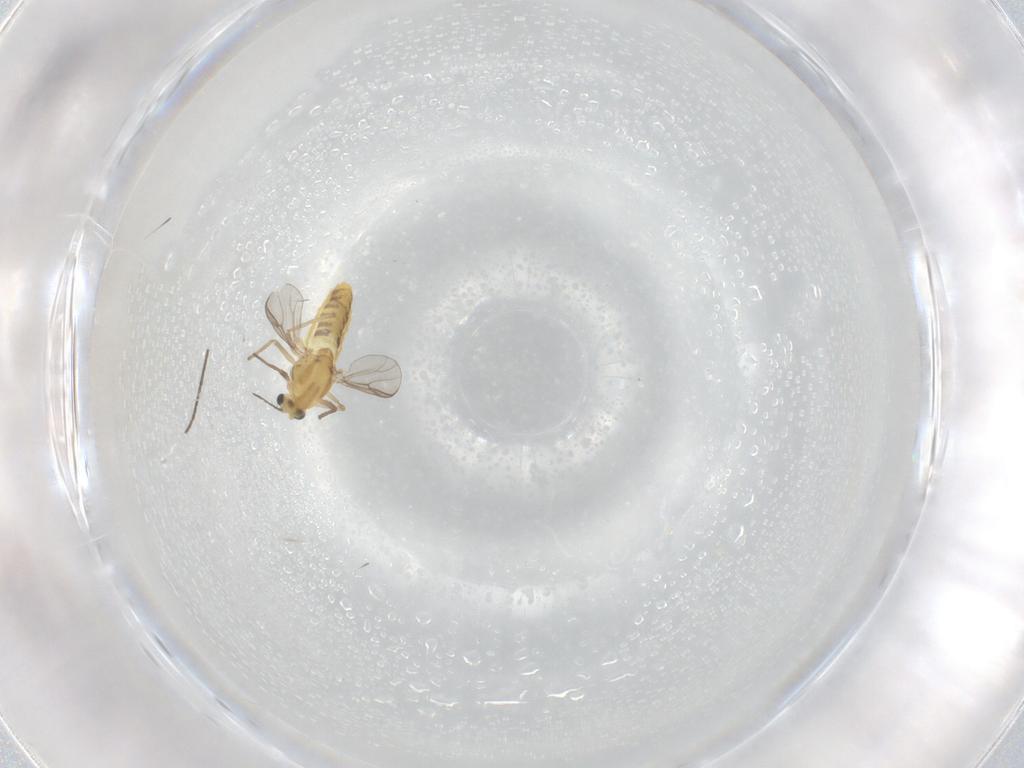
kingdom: Animalia
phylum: Arthropoda
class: Insecta
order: Diptera
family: Chironomidae
